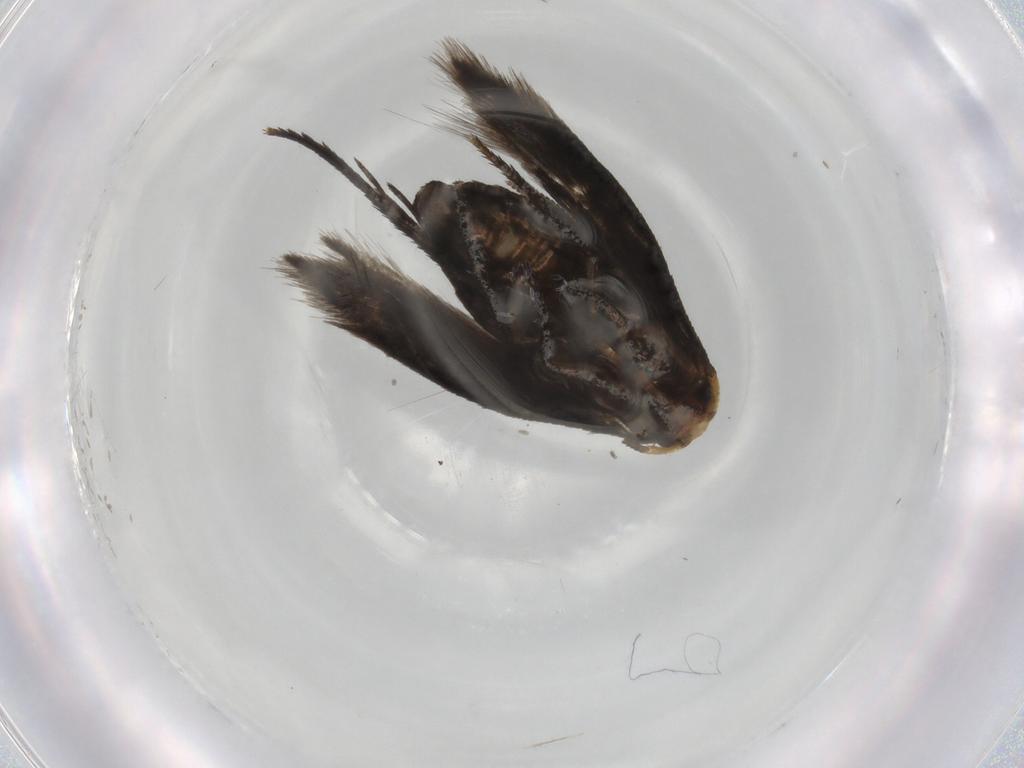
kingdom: Animalia
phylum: Arthropoda
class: Insecta
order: Lepidoptera
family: Nepticulidae
